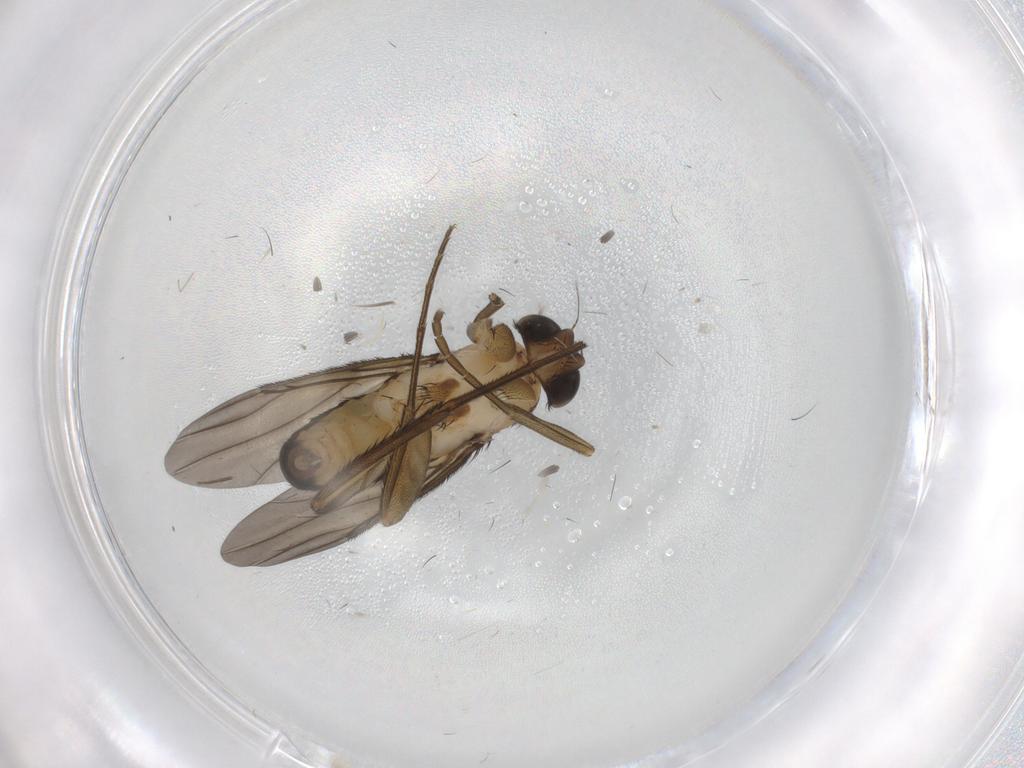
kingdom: Animalia
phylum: Arthropoda
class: Insecta
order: Diptera
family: Phoridae
